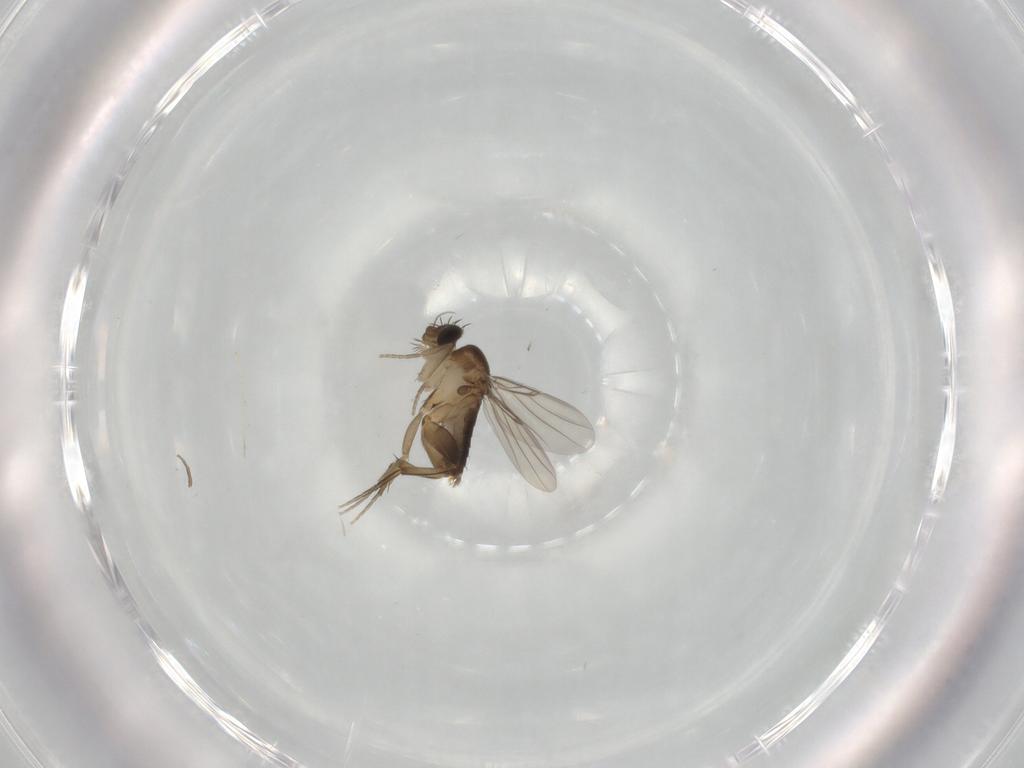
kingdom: Animalia
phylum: Arthropoda
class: Insecta
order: Diptera
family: Phoridae
